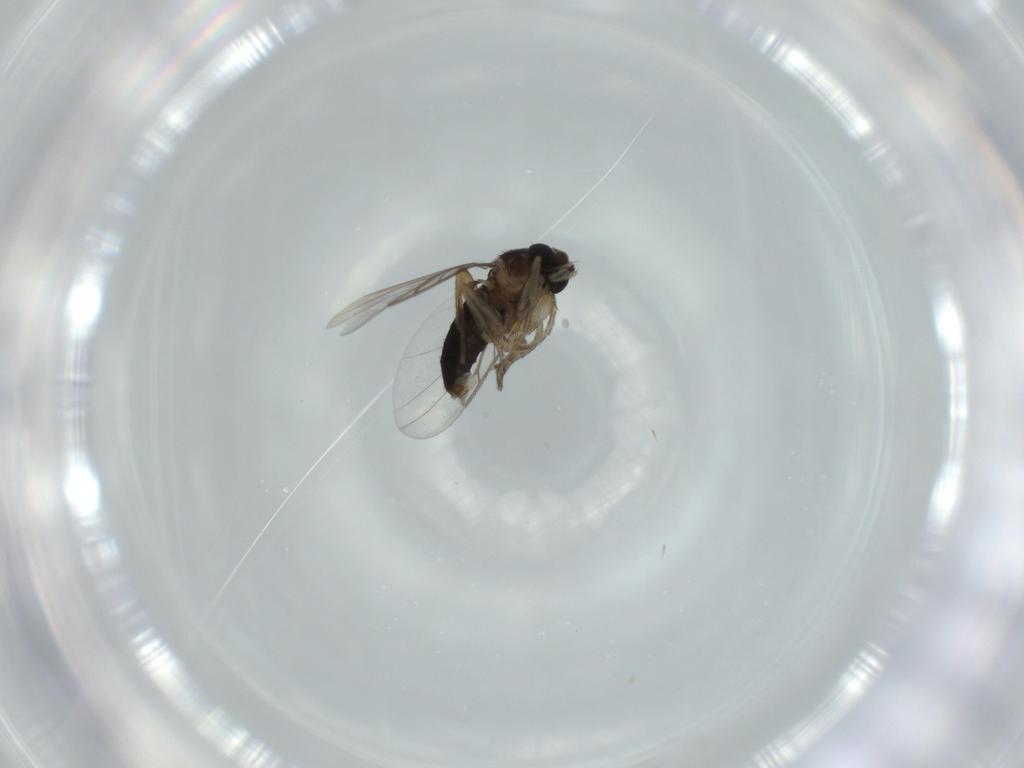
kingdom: Animalia
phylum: Arthropoda
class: Insecta
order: Diptera
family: Phoridae
